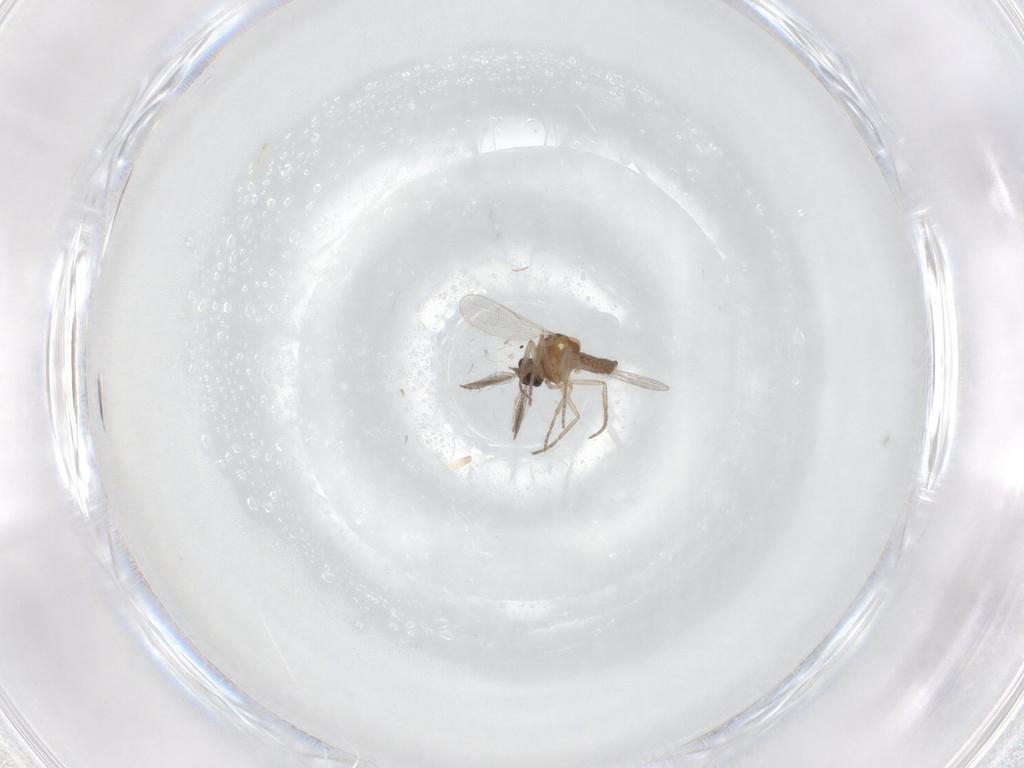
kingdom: Animalia
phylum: Arthropoda
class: Insecta
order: Diptera
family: Chironomidae
